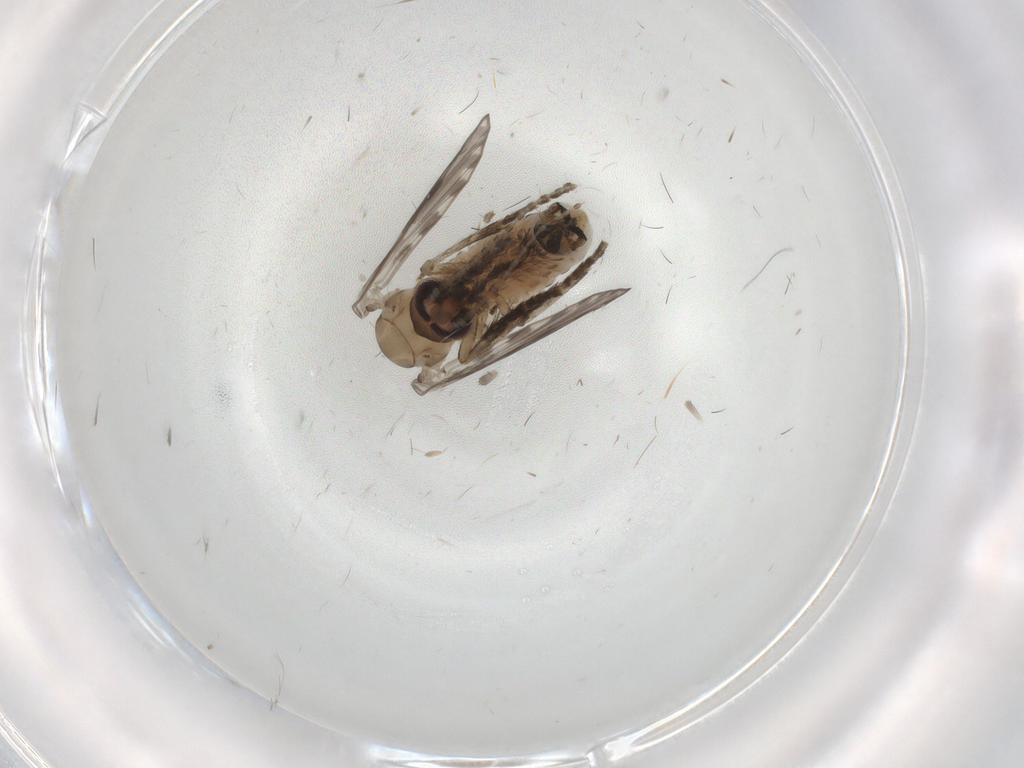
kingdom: Animalia
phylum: Arthropoda
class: Insecta
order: Diptera
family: Psychodidae
